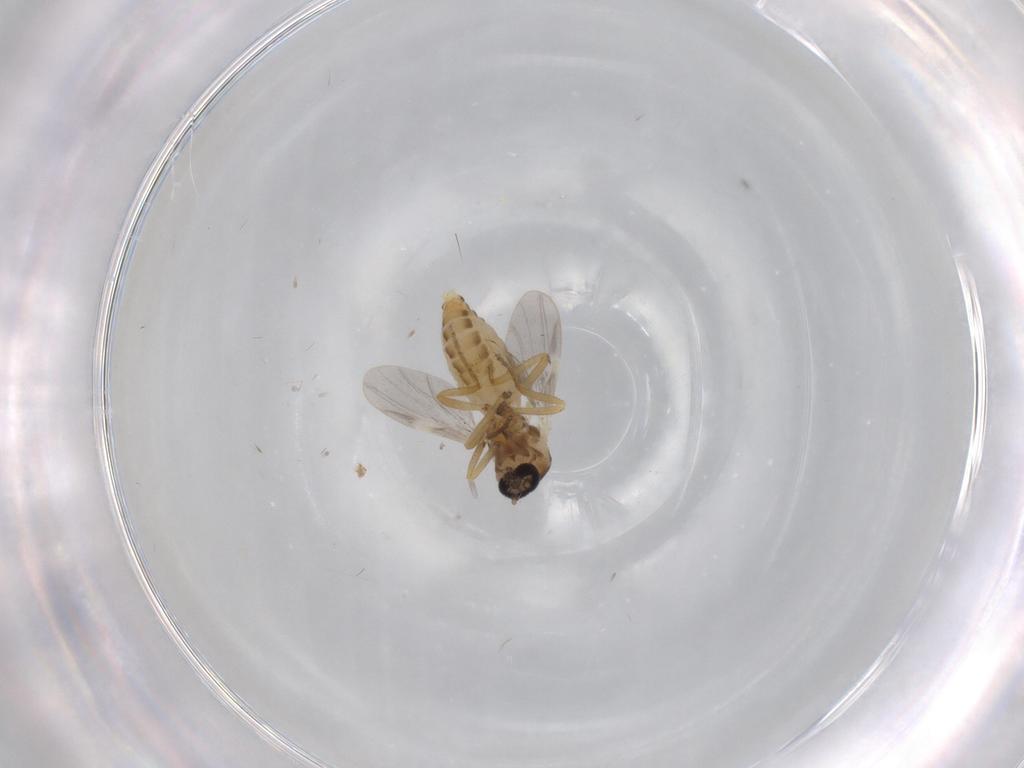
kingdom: Animalia
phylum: Arthropoda
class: Insecta
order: Diptera
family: Ceratopogonidae
